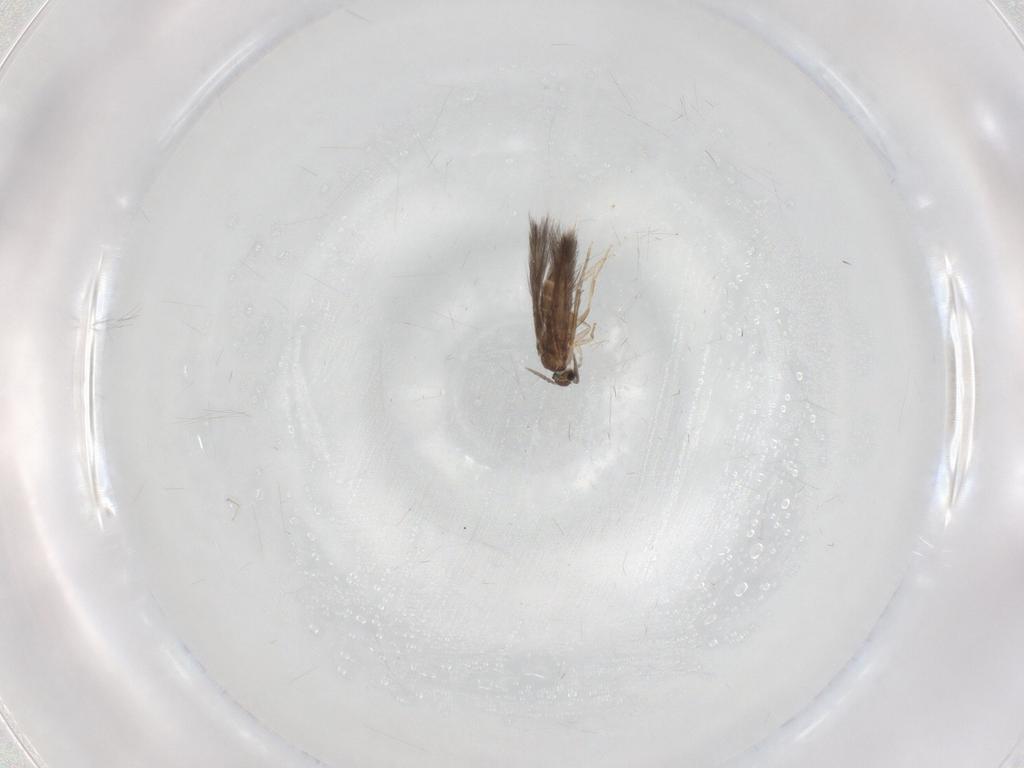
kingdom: Animalia
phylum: Arthropoda
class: Insecta
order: Trichoptera
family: Hydroptilidae
